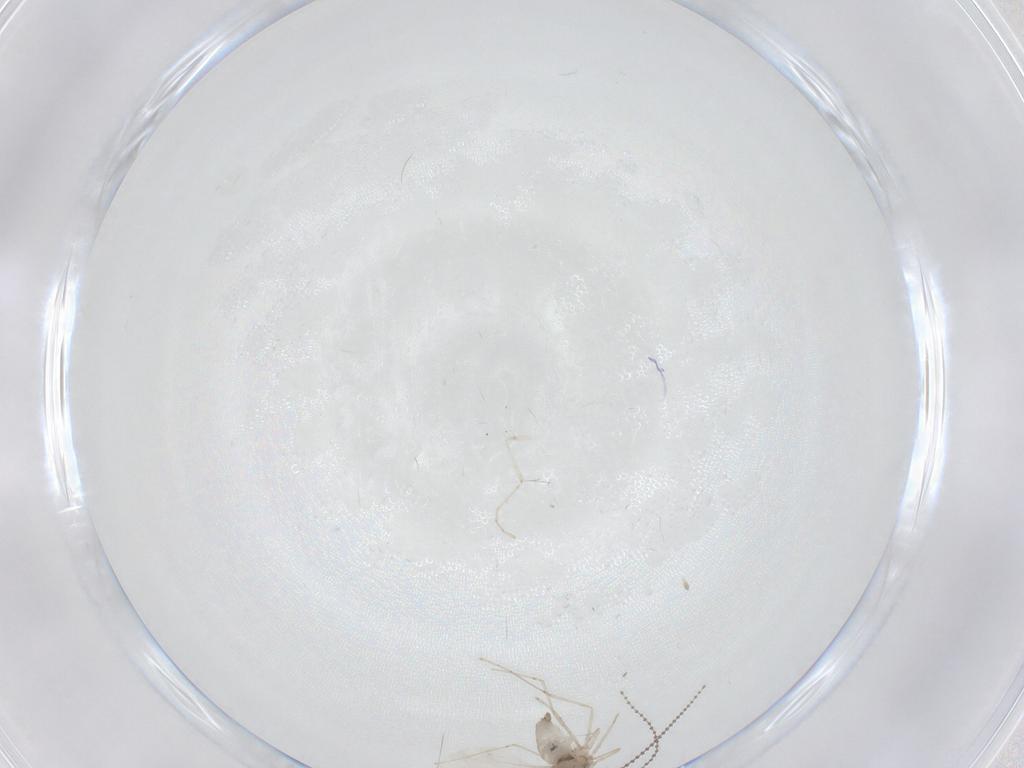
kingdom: Animalia
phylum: Arthropoda
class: Insecta
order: Diptera
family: Cecidomyiidae
